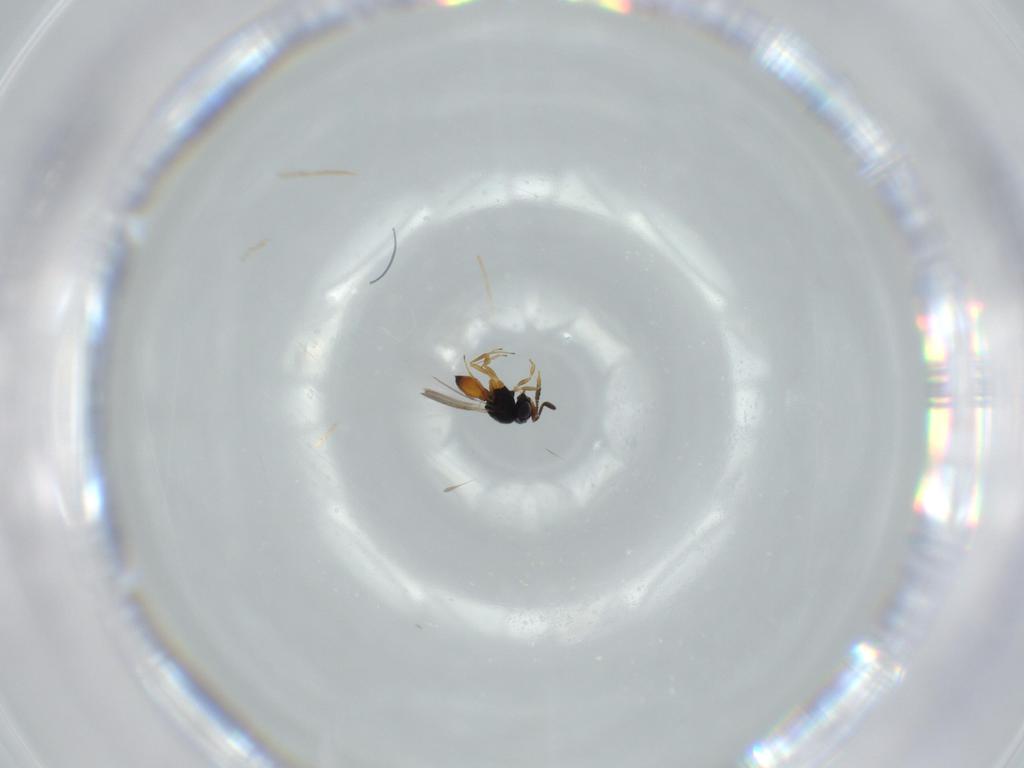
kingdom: Animalia
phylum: Arthropoda
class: Insecta
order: Hymenoptera
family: Scelionidae
